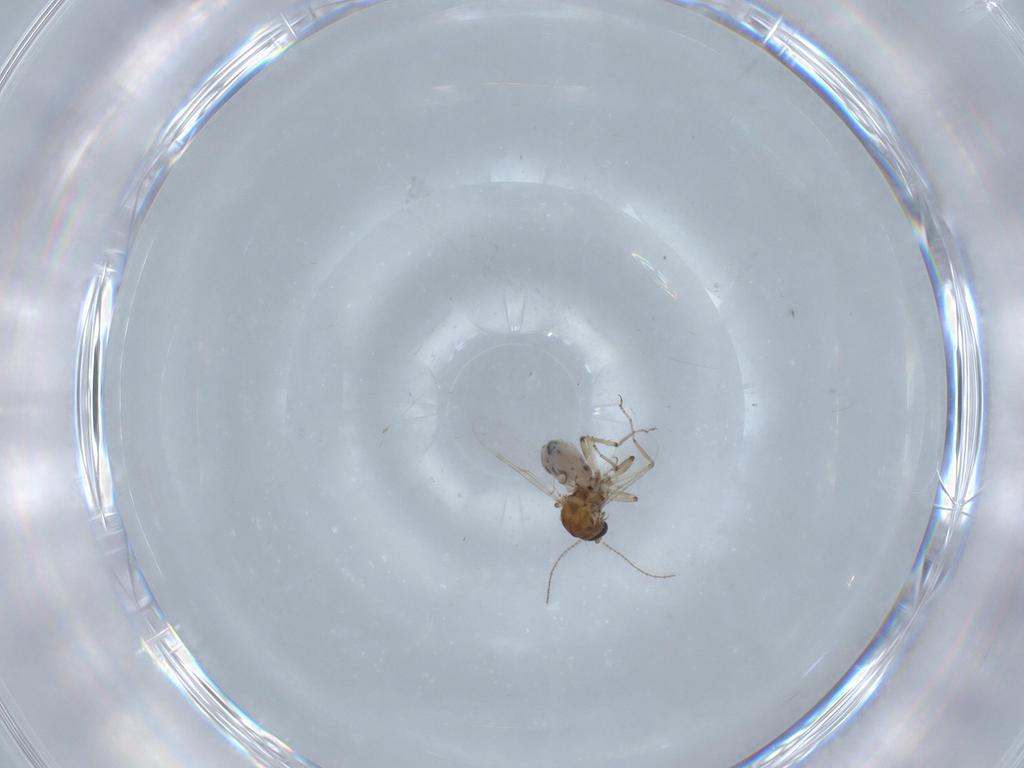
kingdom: Animalia
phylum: Arthropoda
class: Insecta
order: Diptera
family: Ceratopogonidae
